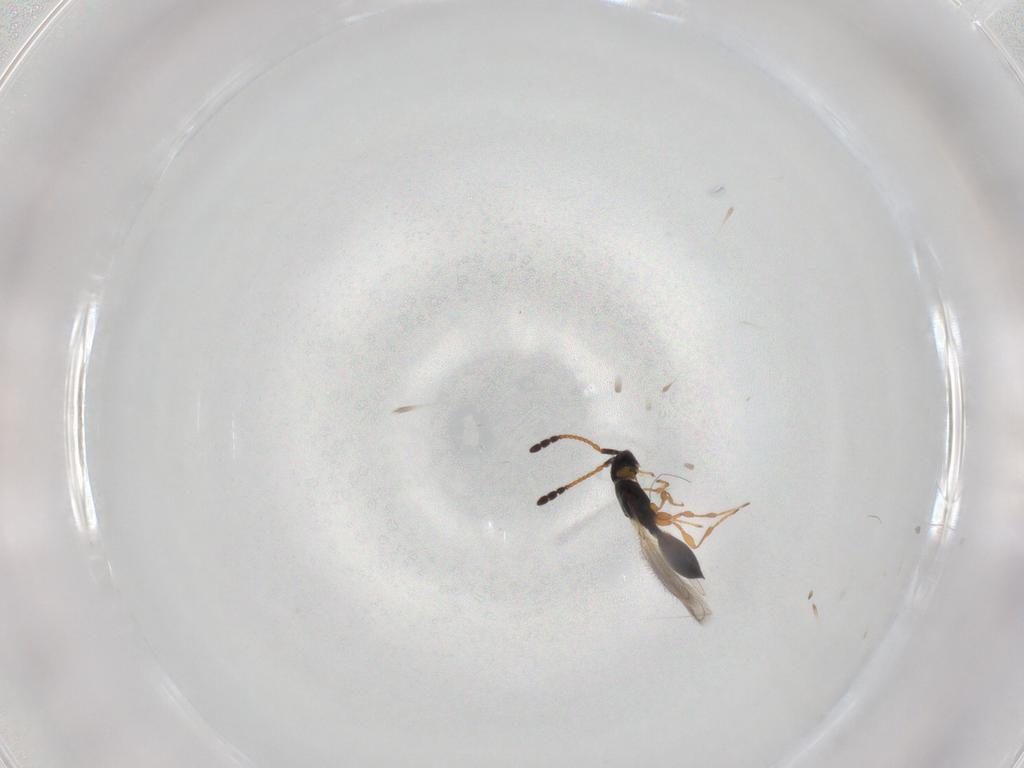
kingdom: Animalia
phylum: Arthropoda
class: Insecta
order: Hymenoptera
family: Diapriidae
